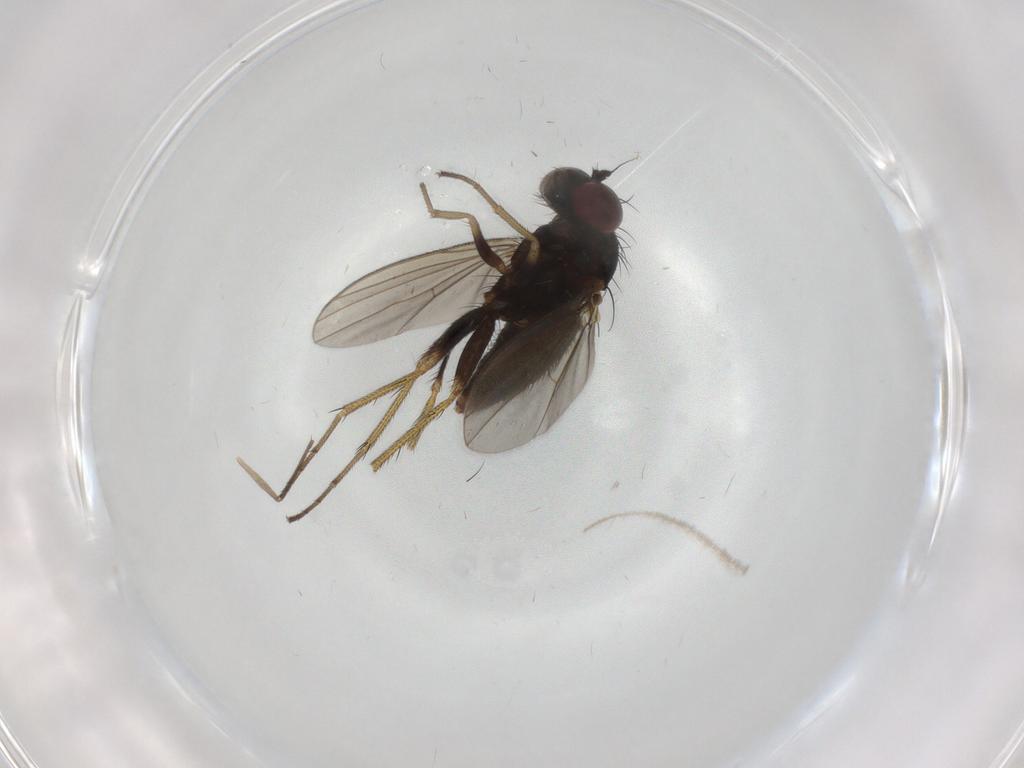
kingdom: Animalia
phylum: Arthropoda
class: Insecta
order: Diptera
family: Dolichopodidae
